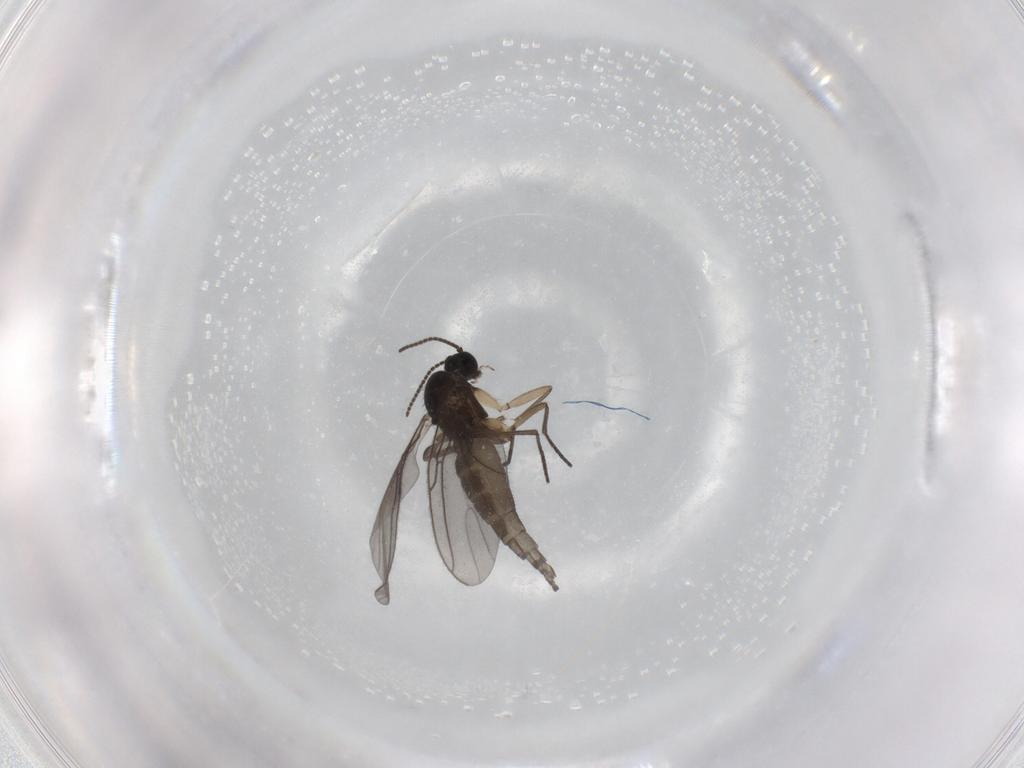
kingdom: Animalia
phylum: Arthropoda
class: Insecta
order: Diptera
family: Sciaridae
